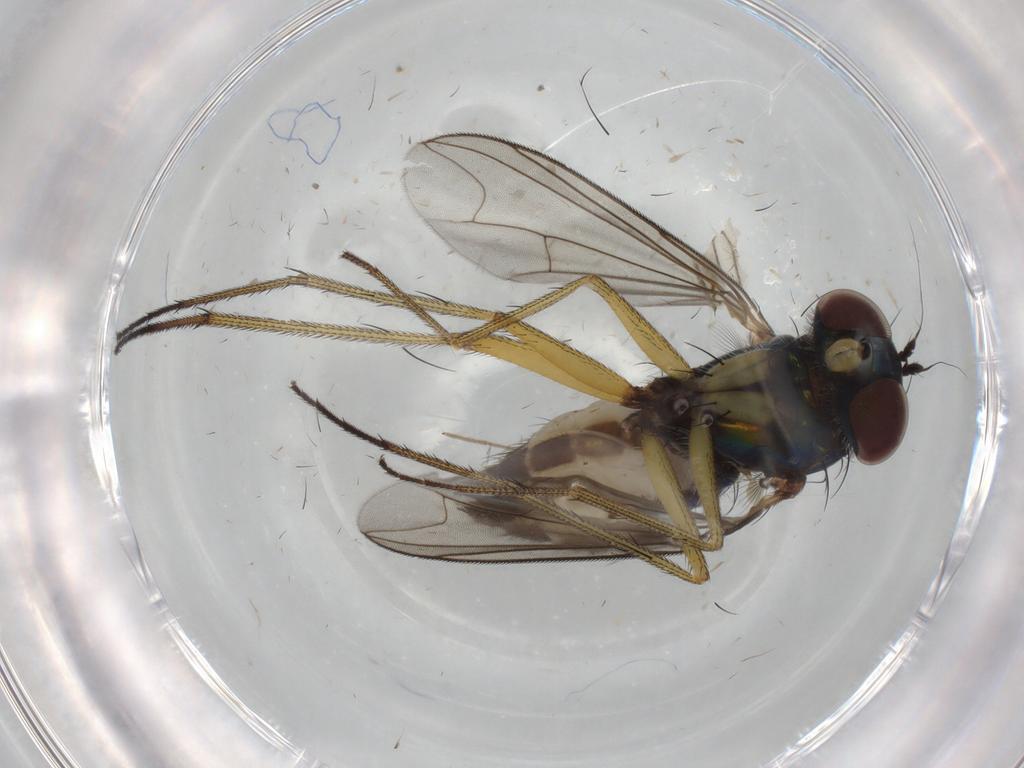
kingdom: Animalia
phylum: Arthropoda
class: Insecta
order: Diptera
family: Dolichopodidae
